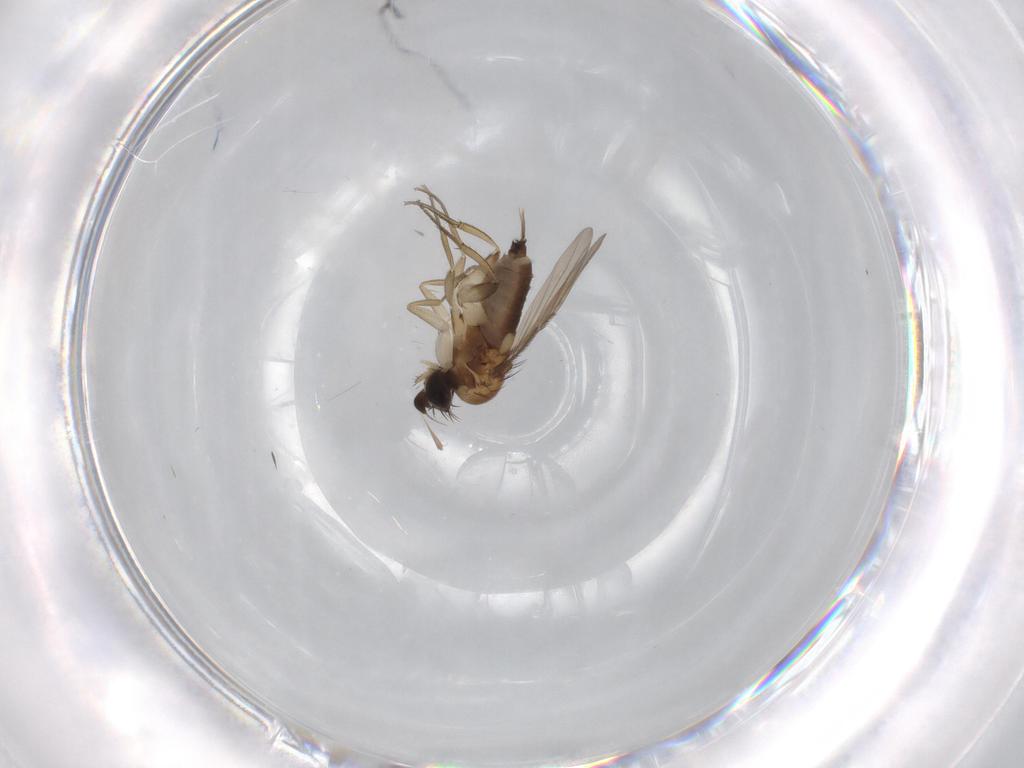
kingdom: Animalia
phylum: Arthropoda
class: Insecta
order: Diptera
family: Phoridae
